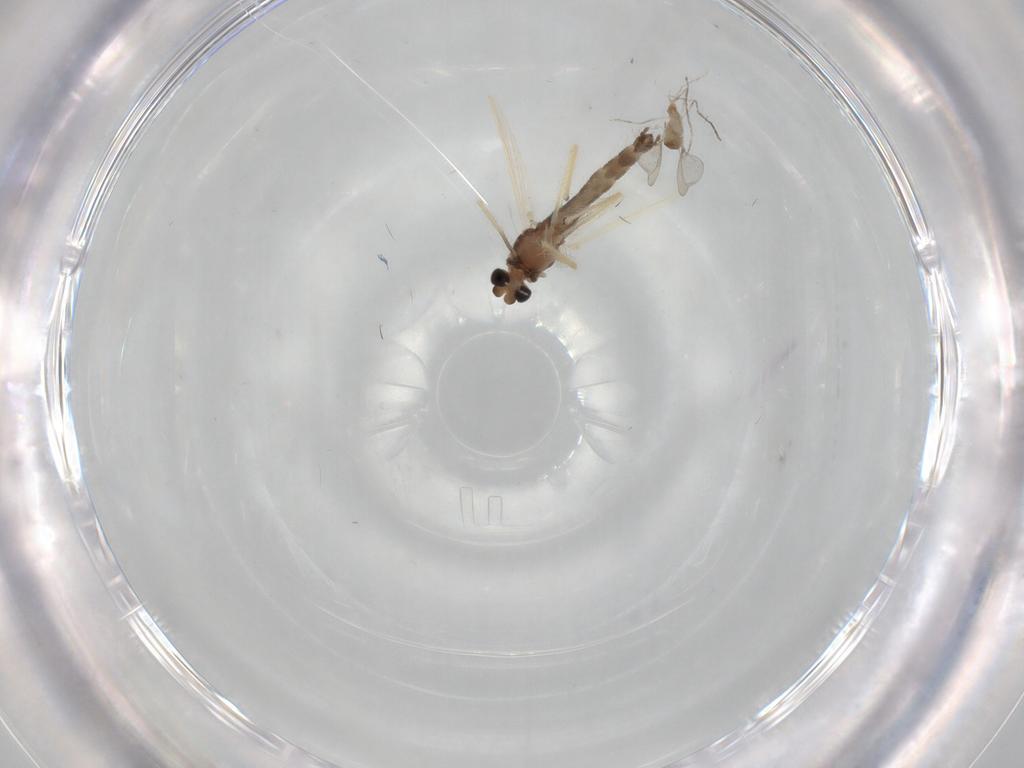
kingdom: Animalia
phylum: Arthropoda
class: Insecta
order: Diptera
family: Chironomidae
